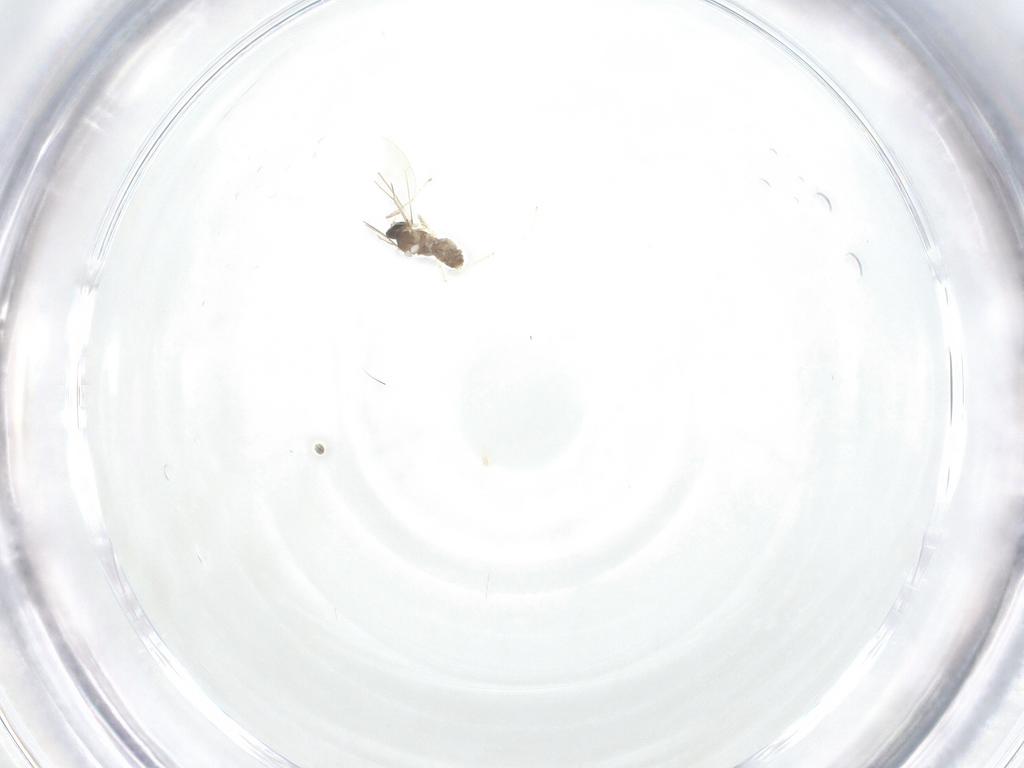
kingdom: Animalia
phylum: Arthropoda
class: Insecta
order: Diptera
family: Cecidomyiidae
